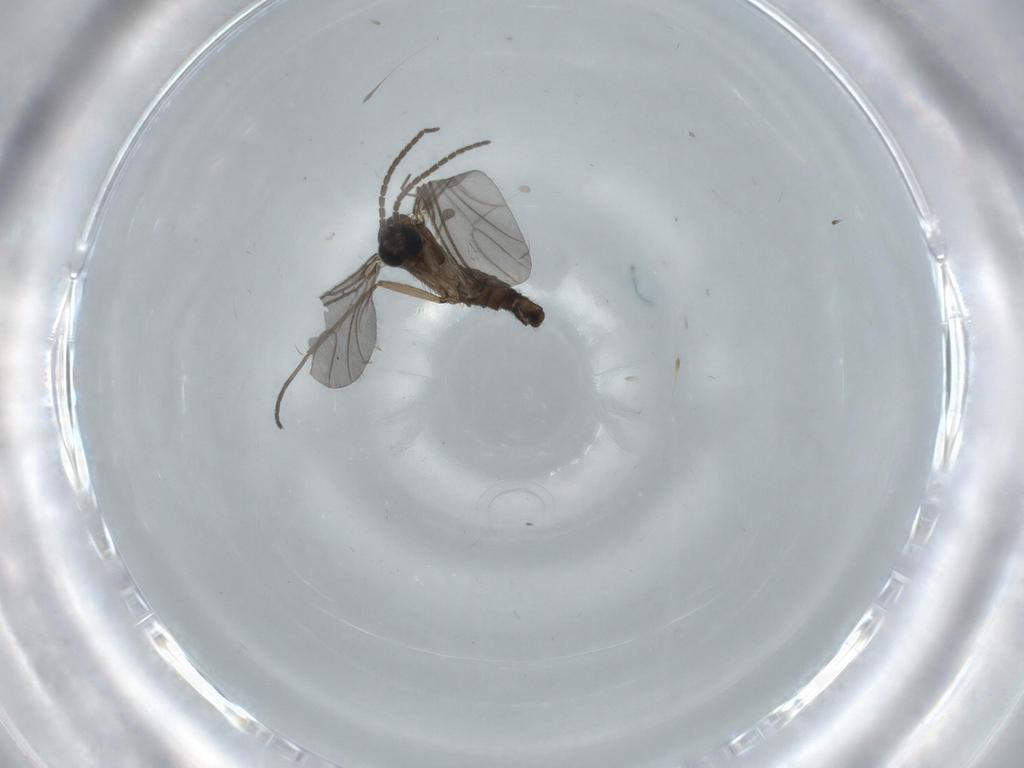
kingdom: Animalia
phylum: Arthropoda
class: Insecta
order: Diptera
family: Sciaridae
